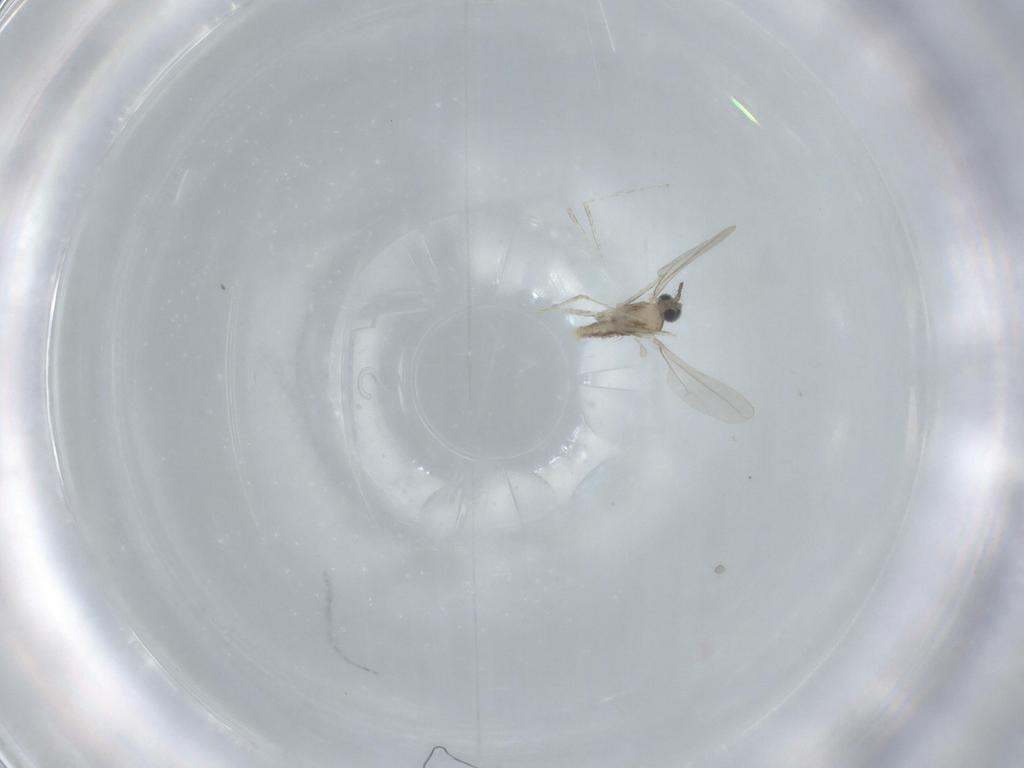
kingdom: Animalia
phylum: Arthropoda
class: Insecta
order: Diptera
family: Cecidomyiidae
